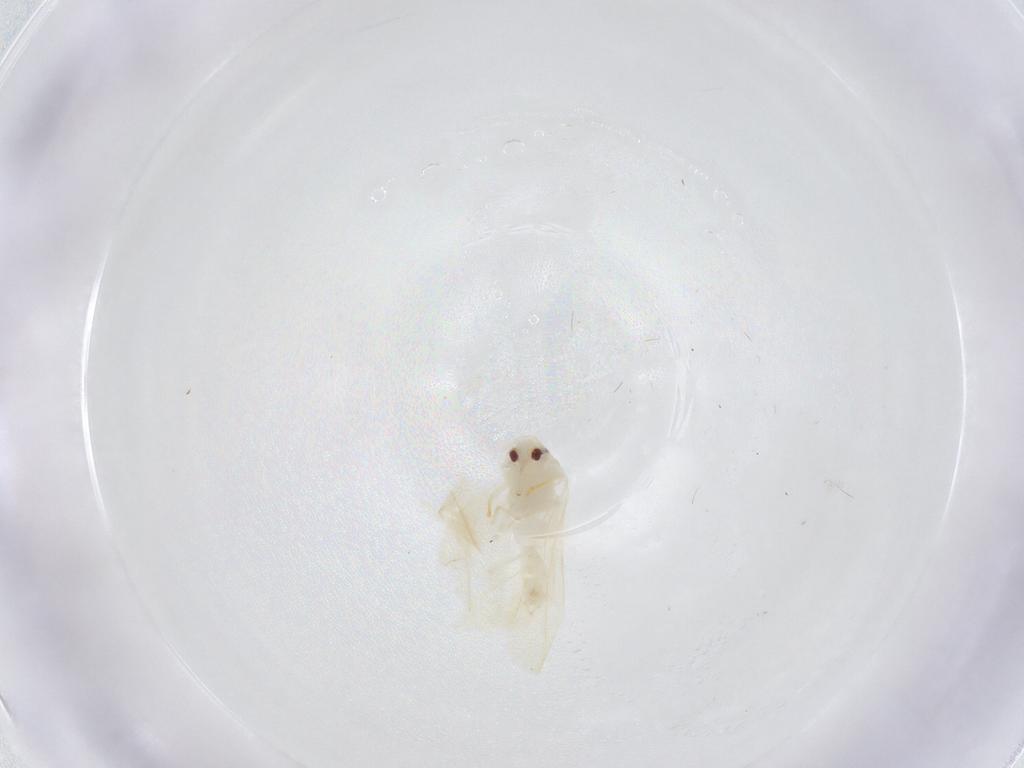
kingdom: Animalia
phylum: Arthropoda
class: Insecta
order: Hemiptera
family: Aleyrodidae
